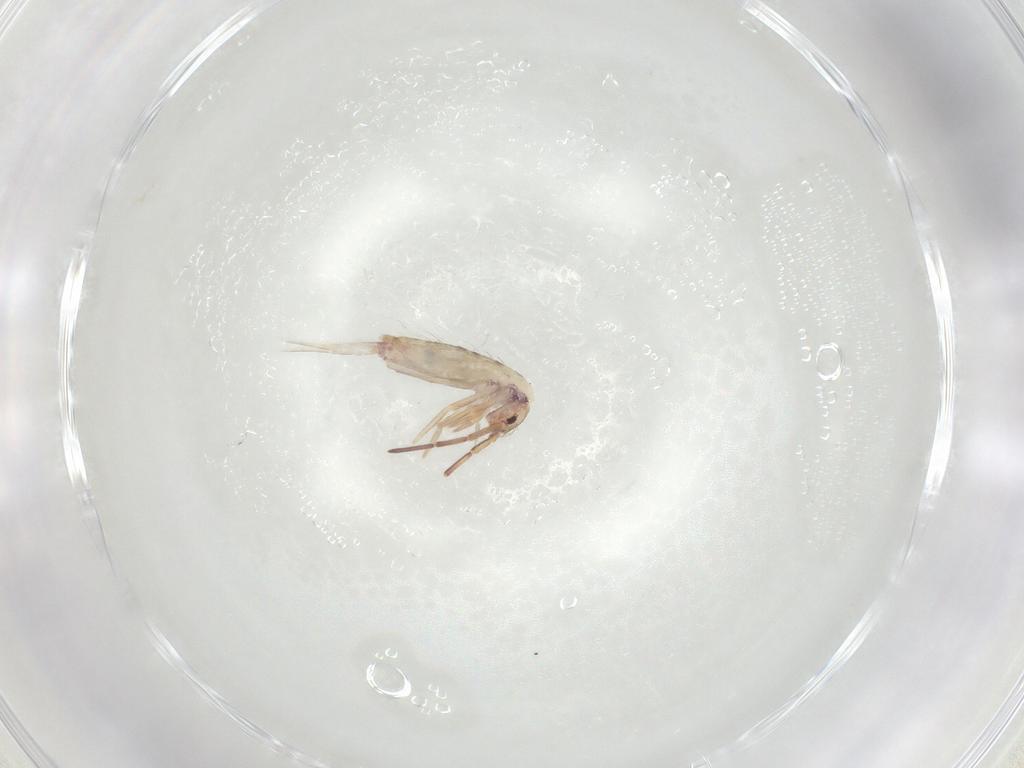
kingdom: Animalia
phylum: Arthropoda
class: Collembola
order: Entomobryomorpha
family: Entomobryidae
